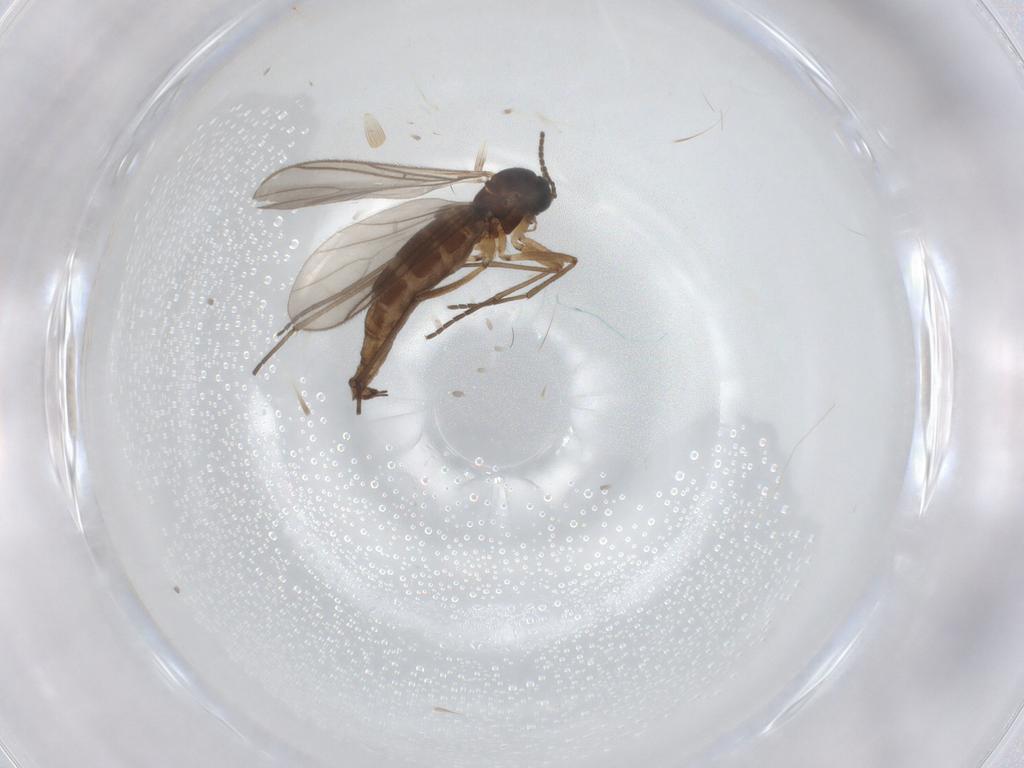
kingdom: Animalia
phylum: Arthropoda
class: Insecta
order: Diptera
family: Sciaridae
